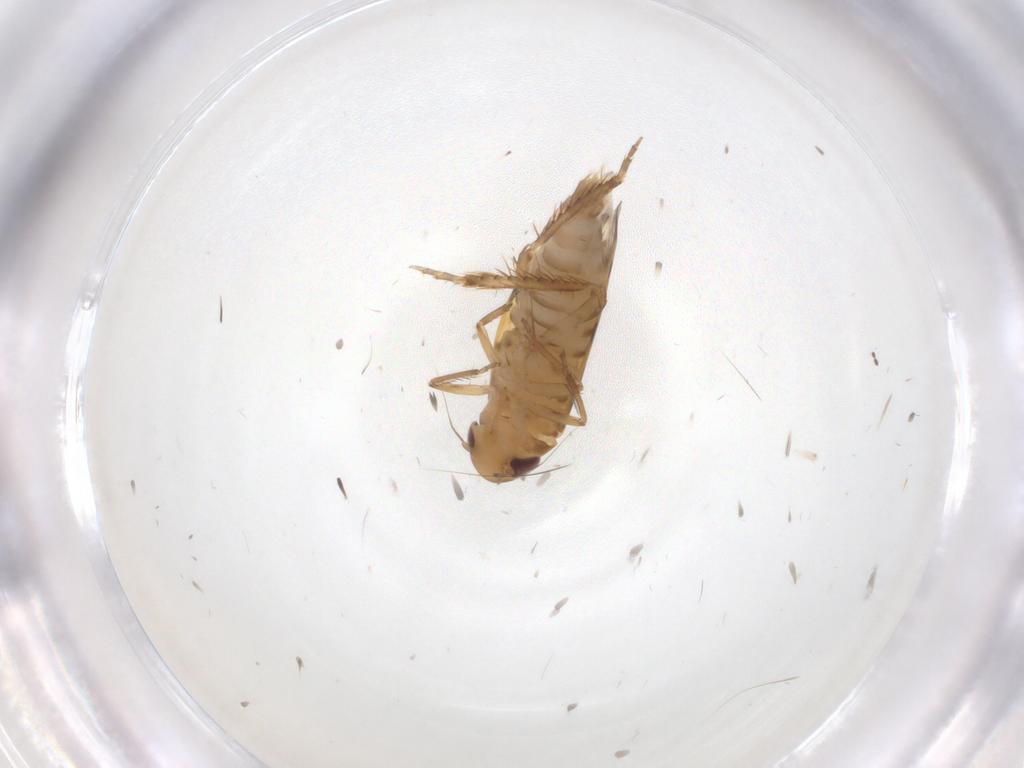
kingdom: Animalia
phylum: Arthropoda
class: Insecta
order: Hemiptera
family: Cicadellidae
